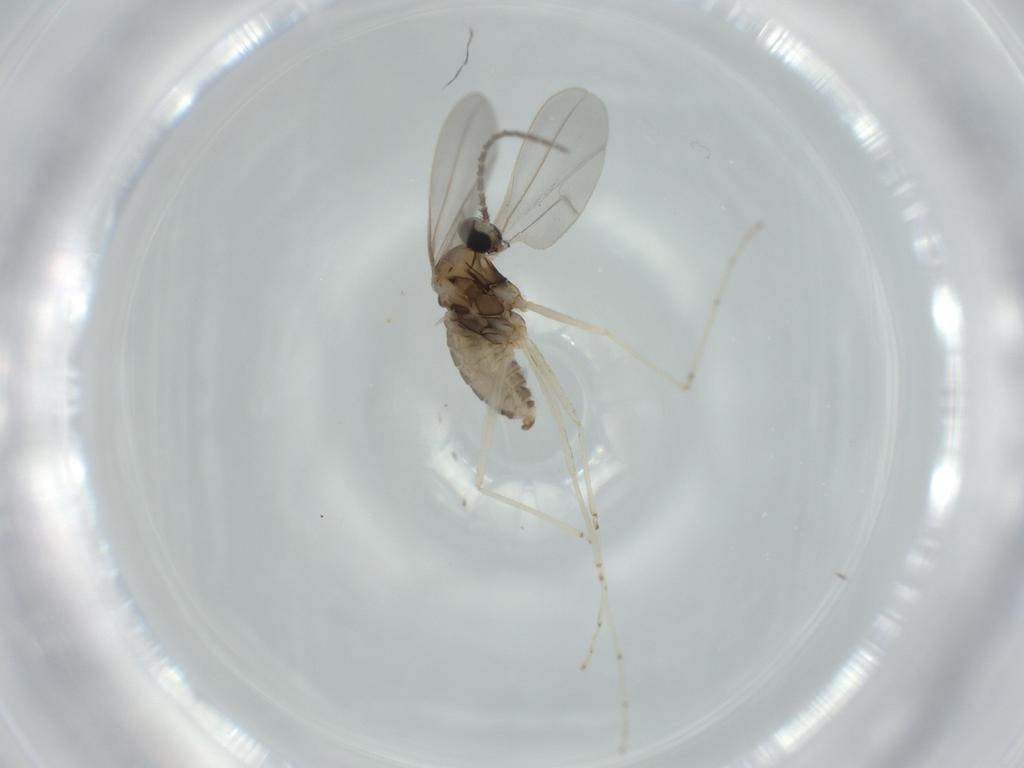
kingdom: Animalia
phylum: Arthropoda
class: Insecta
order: Diptera
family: Cecidomyiidae
